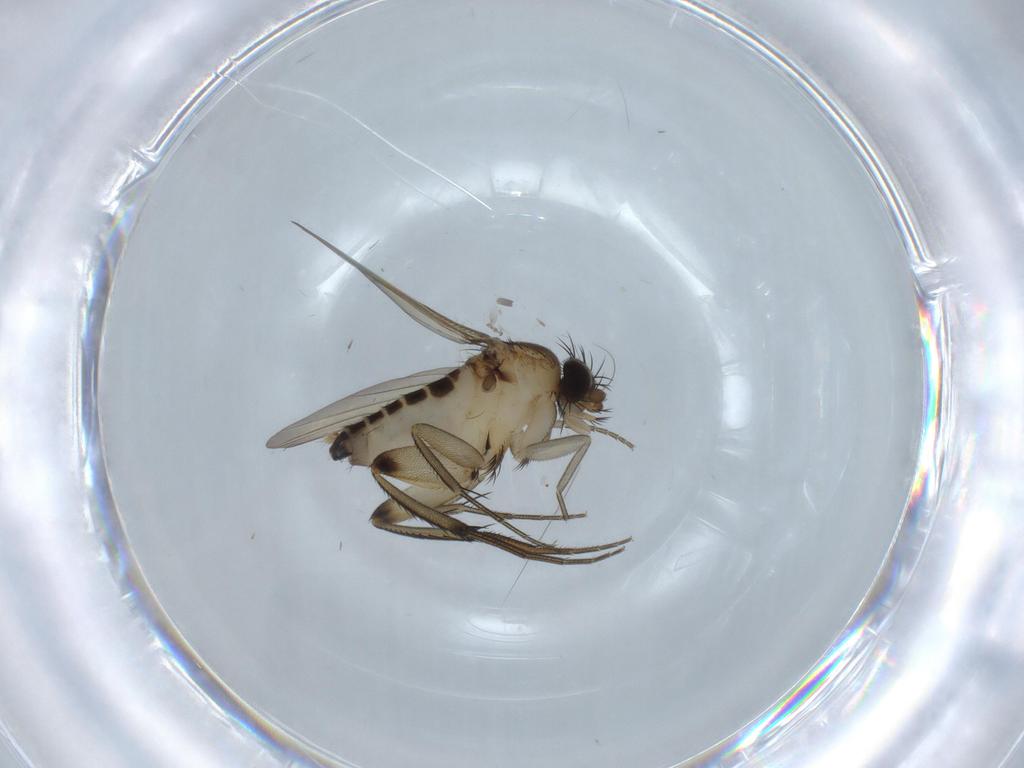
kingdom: Animalia
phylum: Arthropoda
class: Insecta
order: Diptera
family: Phoridae
